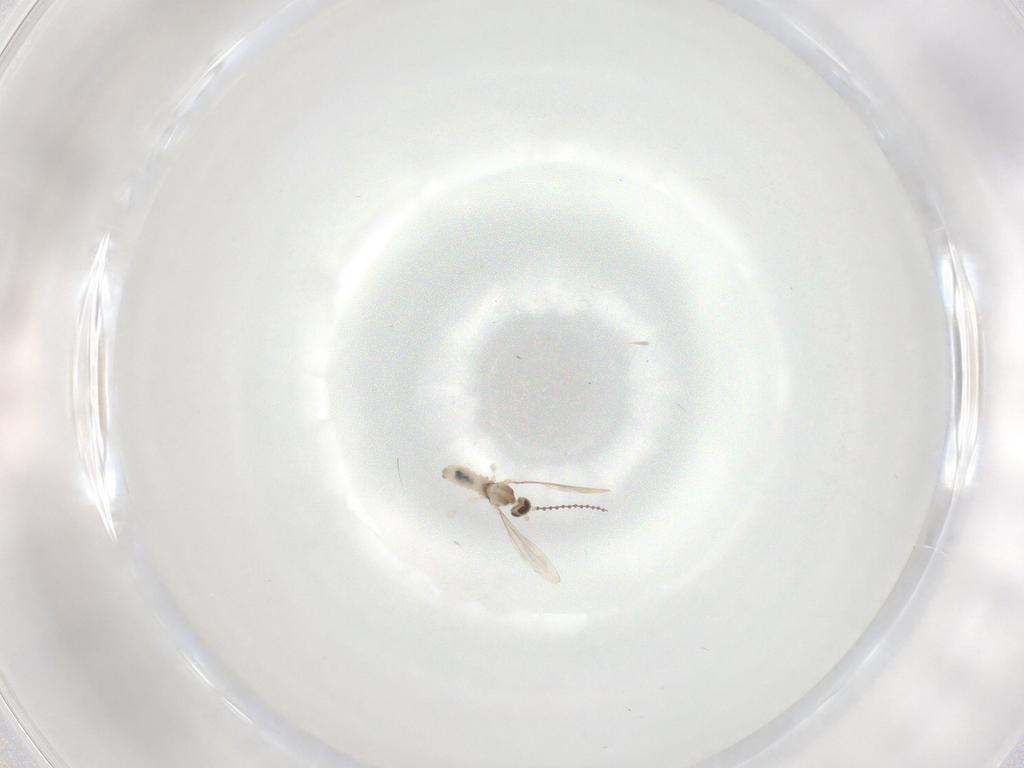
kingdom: Animalia
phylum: Arthropoda
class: Insecta
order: Diptera
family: Cecidomyiidae
